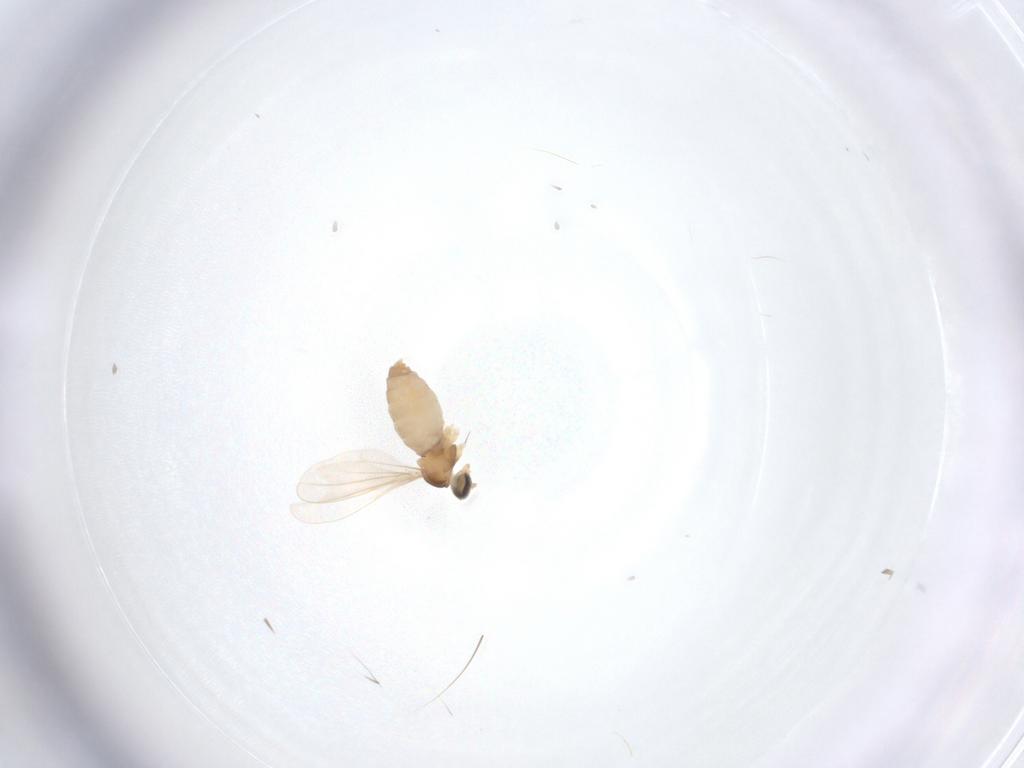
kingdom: Animalia
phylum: Arthropoda
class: Insecta
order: Diptera
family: Cecidomyiidae
